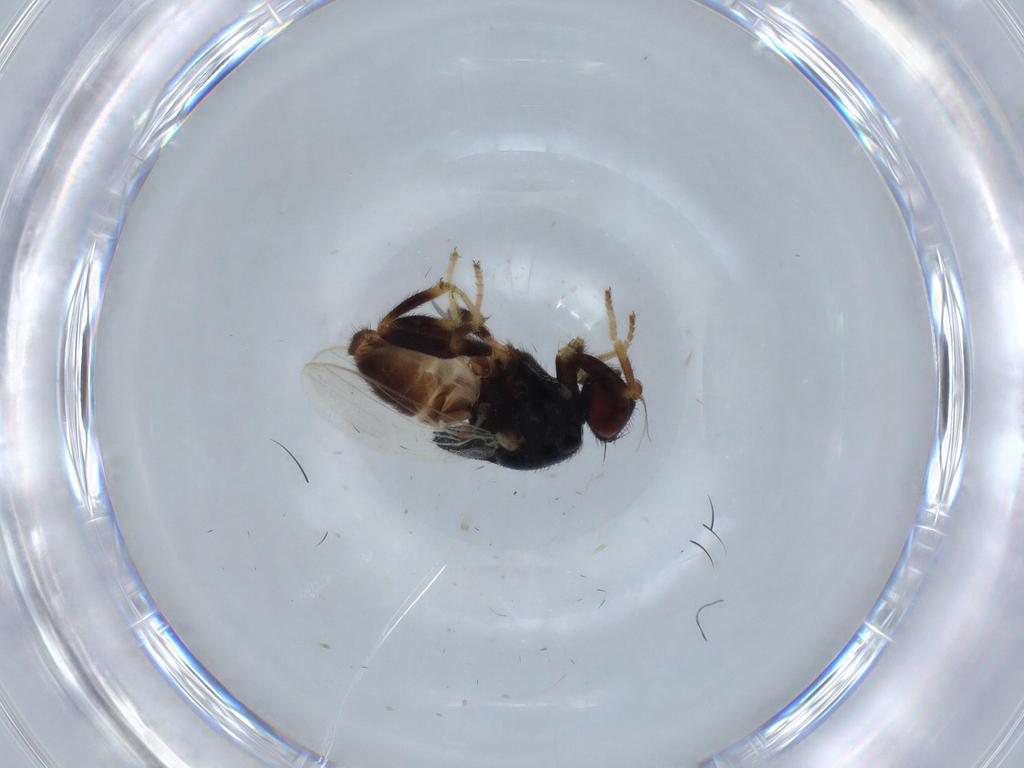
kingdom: Animalia
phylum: Arthropoda
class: Insecta
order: Diptera
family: Chloropidae
